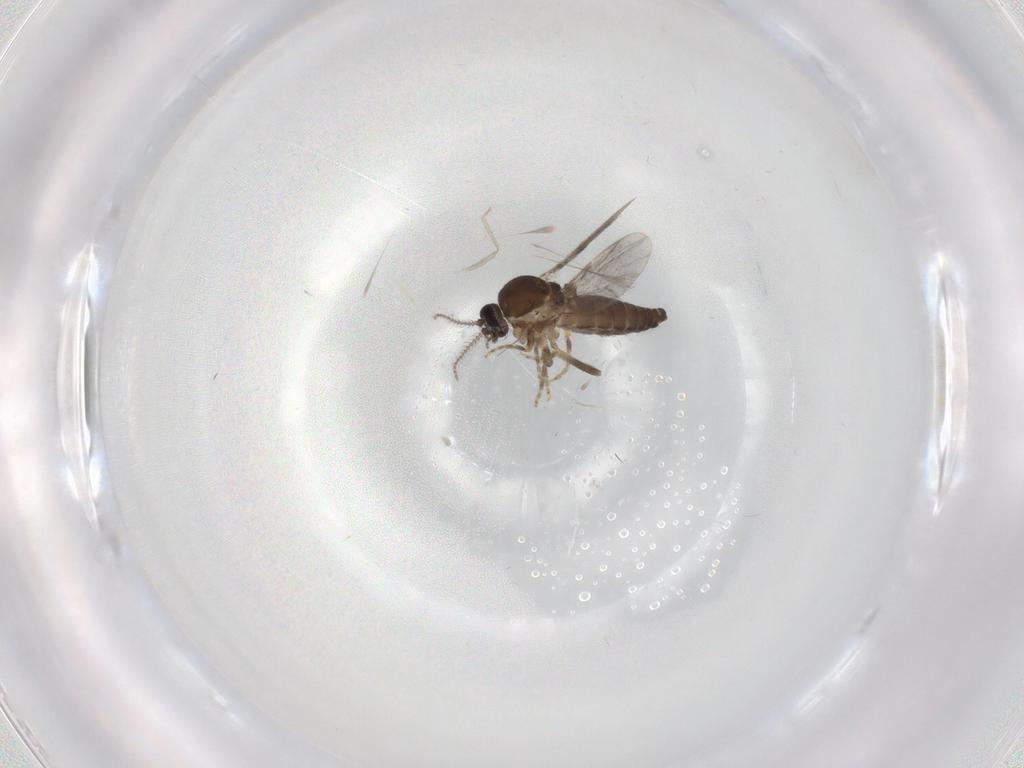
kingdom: Animalia
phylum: Arthropoda
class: Insecta
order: Diptera
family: Ceratopogonidae
